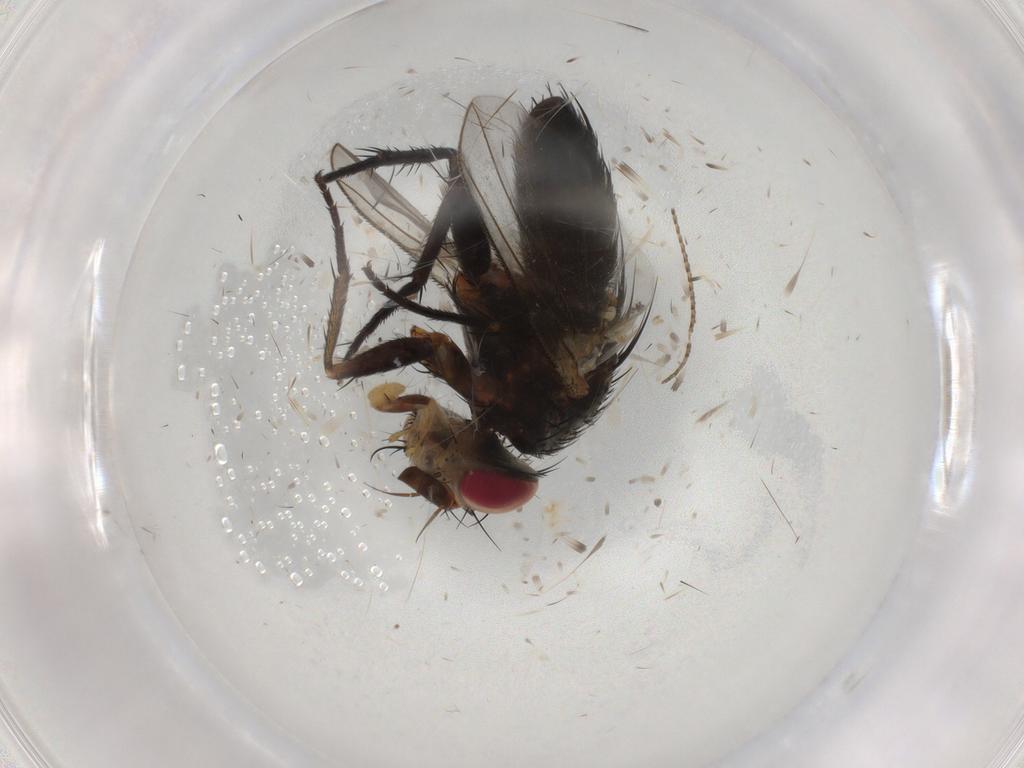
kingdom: Animalia
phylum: Arthropoda
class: Insecta
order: Diptera
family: Tachinidae
